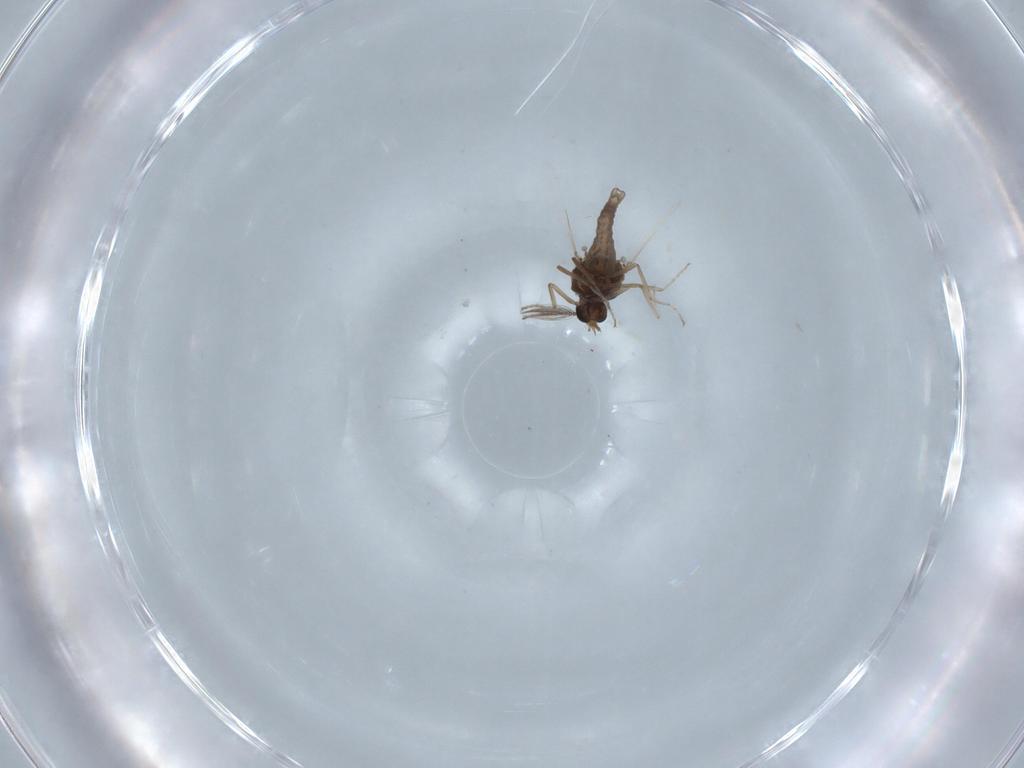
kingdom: Animalia
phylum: Arthropoda
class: Insecta
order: Diptera
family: Ceratopogonidae
